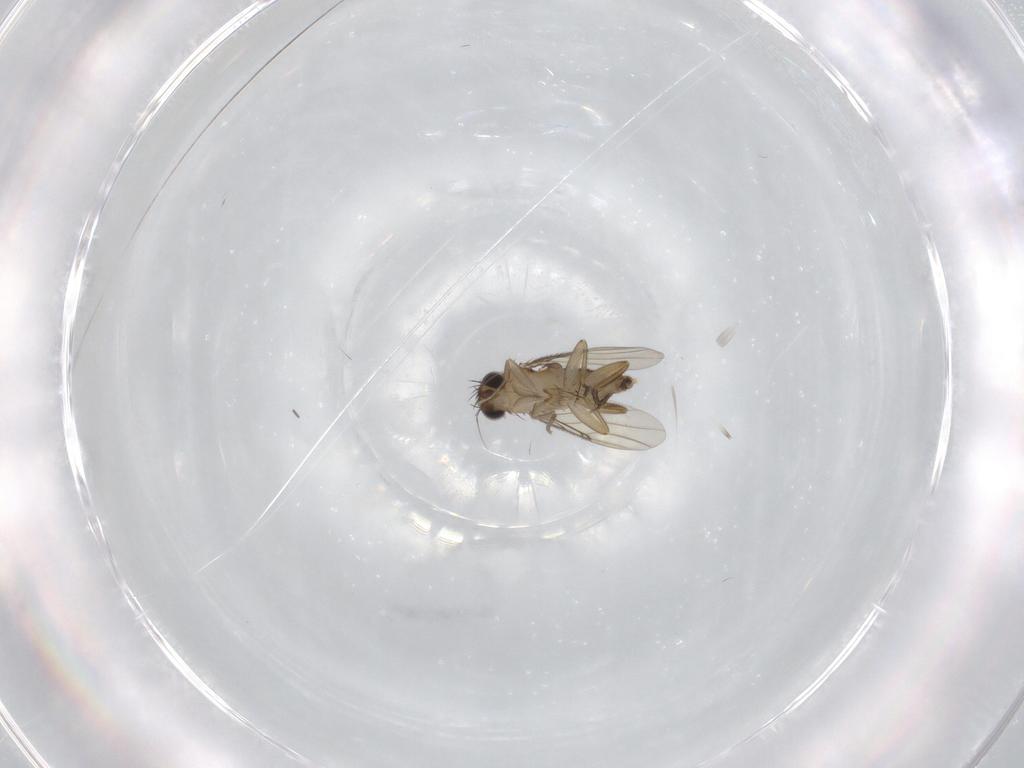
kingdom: Animalia
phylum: Arthropoda
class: Insecta
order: Diptera
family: Phoridae
